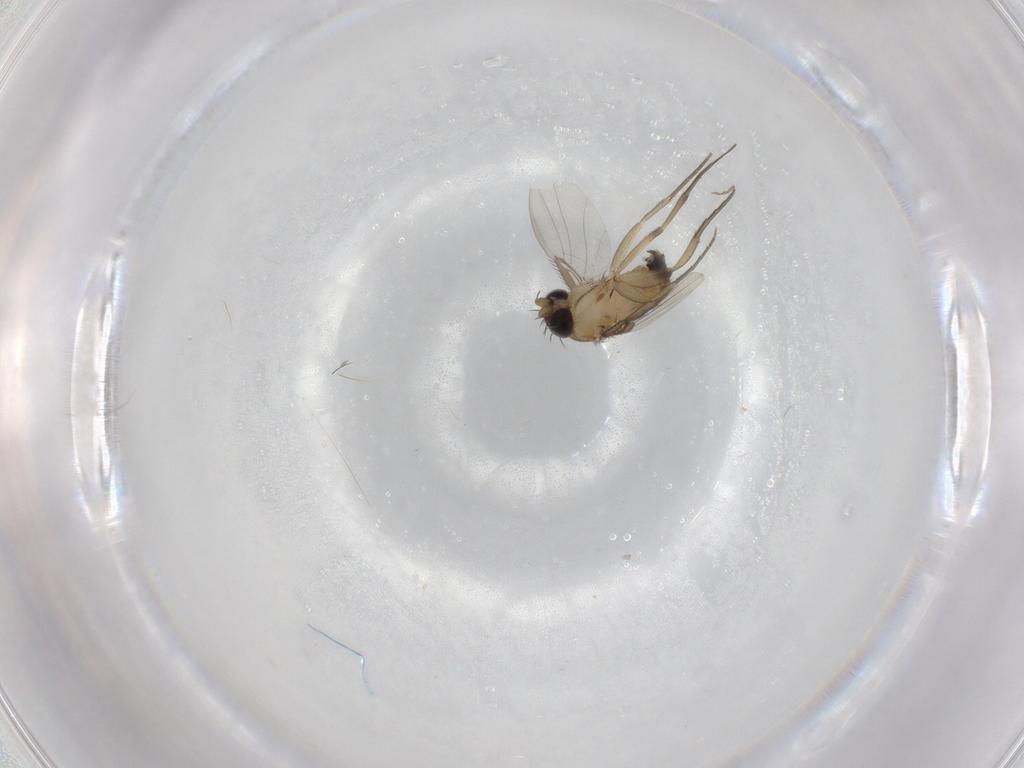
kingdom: Animalia
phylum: Arthropoda
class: Insecta
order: Diptera
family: Phoridae
